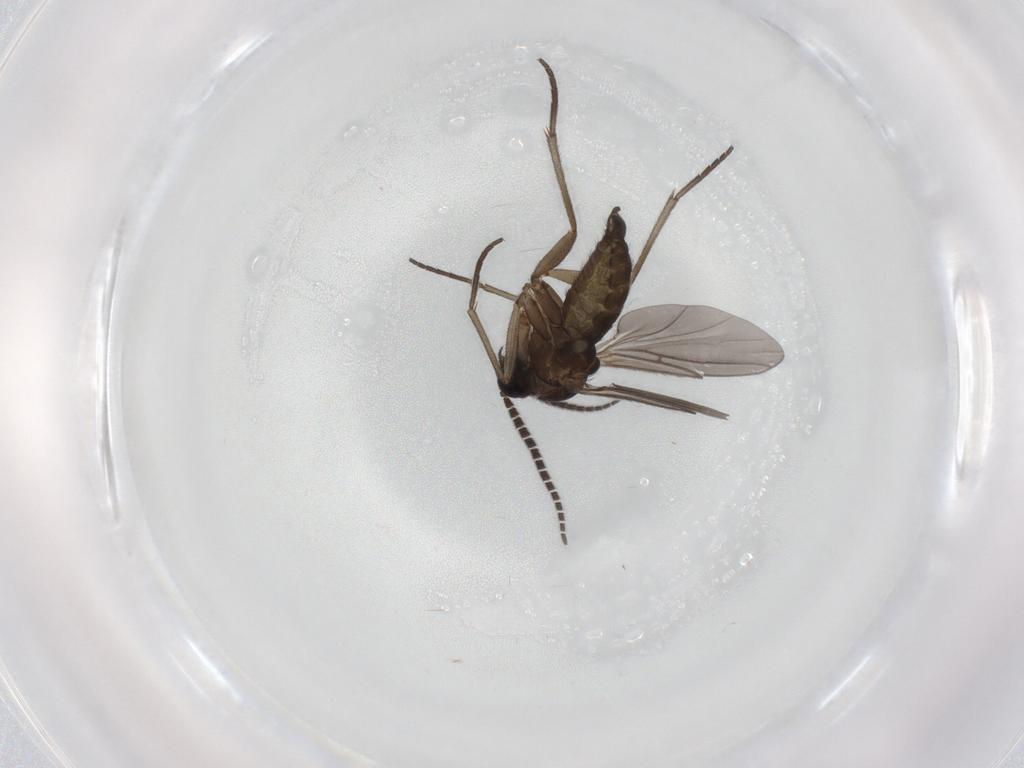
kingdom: Animalia
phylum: Arthropoda
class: Insecta
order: Diptera
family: Sciaridae
